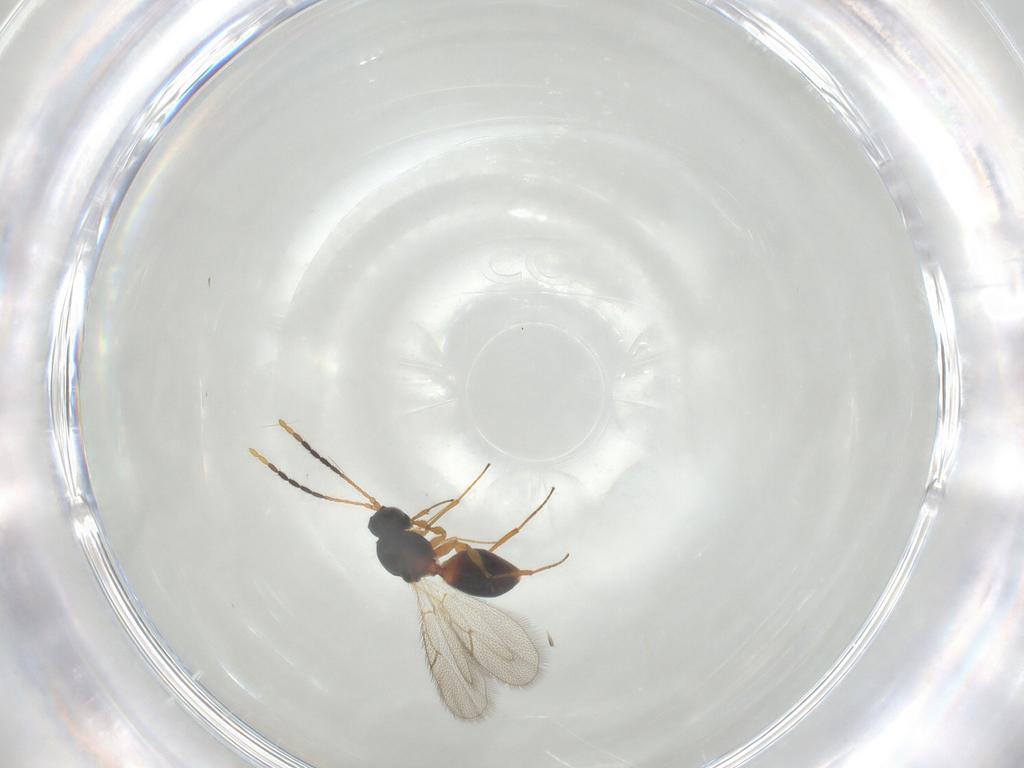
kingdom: Animalia
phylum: Arthropoda
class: Insecta
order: Hymenoptera
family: Figitidae
